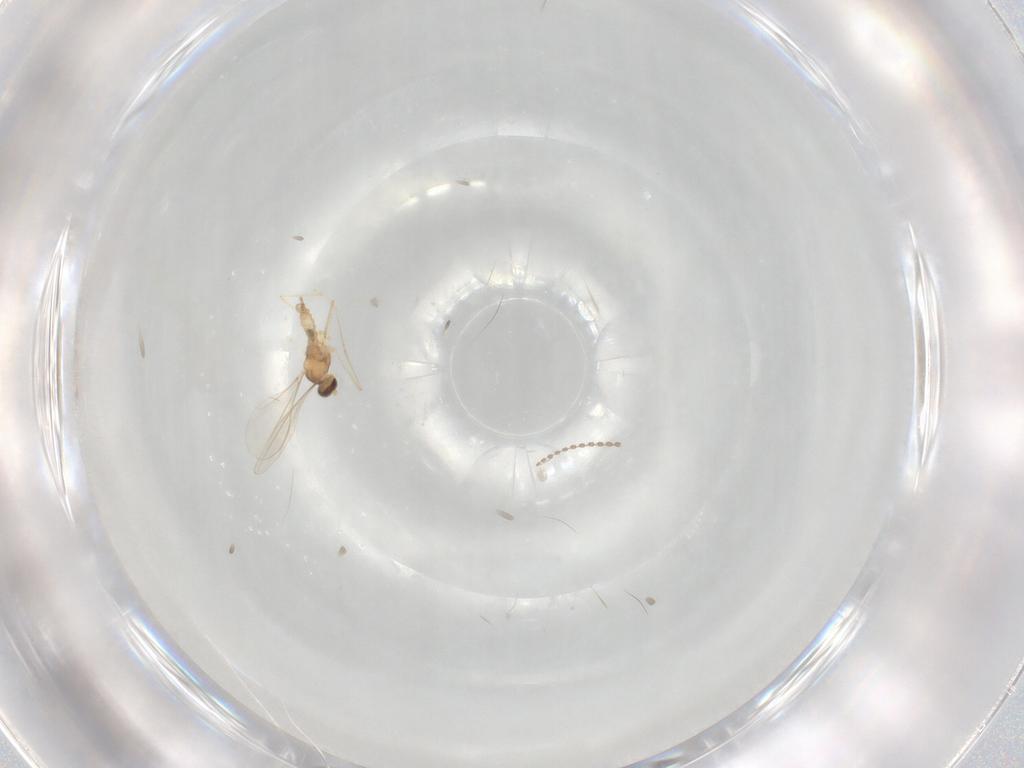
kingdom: Animalia
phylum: Arthropoda
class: Insecta
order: Diptera
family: Cecidomyiidae
